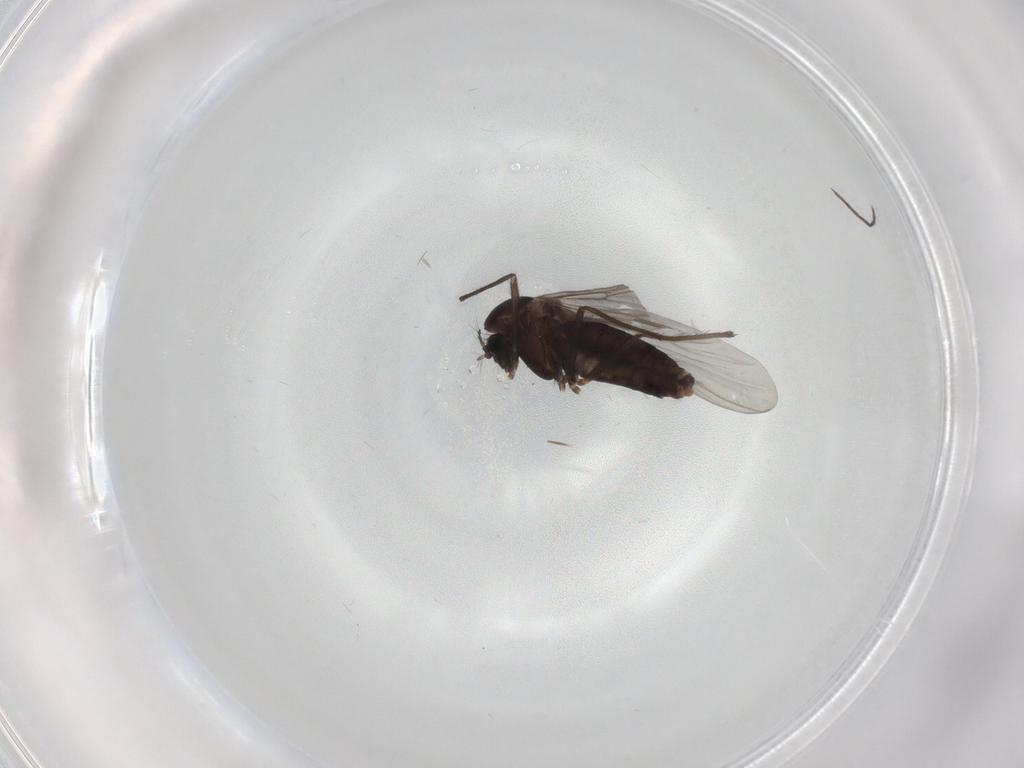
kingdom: Animalia
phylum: Arthropoda
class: Insecta
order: Diptera
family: Chironomidae
